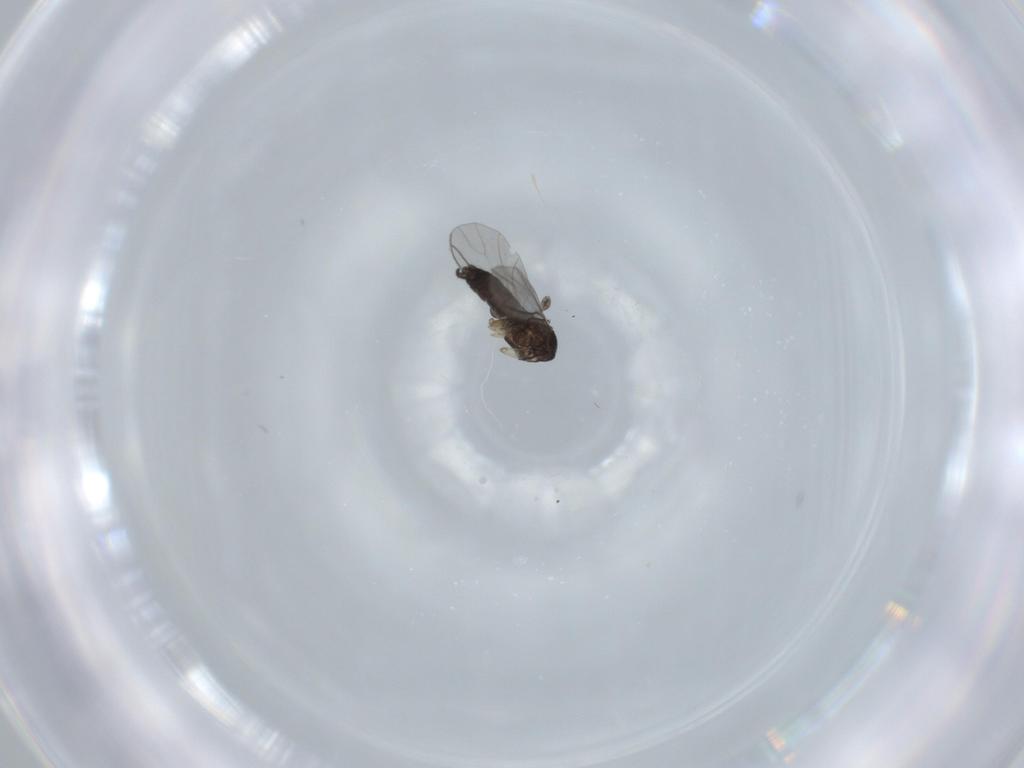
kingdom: Animalia
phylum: Arthropoda
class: Insecta
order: Diptera
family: Sciaridae
